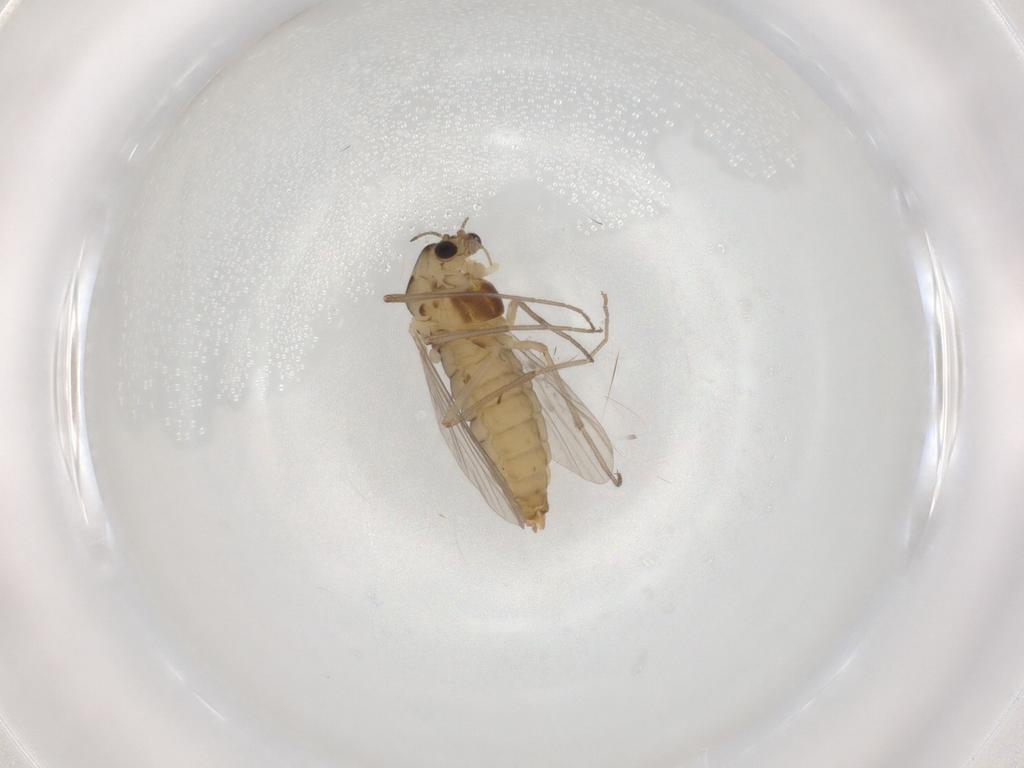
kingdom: Animalia
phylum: Arthropoda
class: Insecta
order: Diptera
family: Chironomidae
